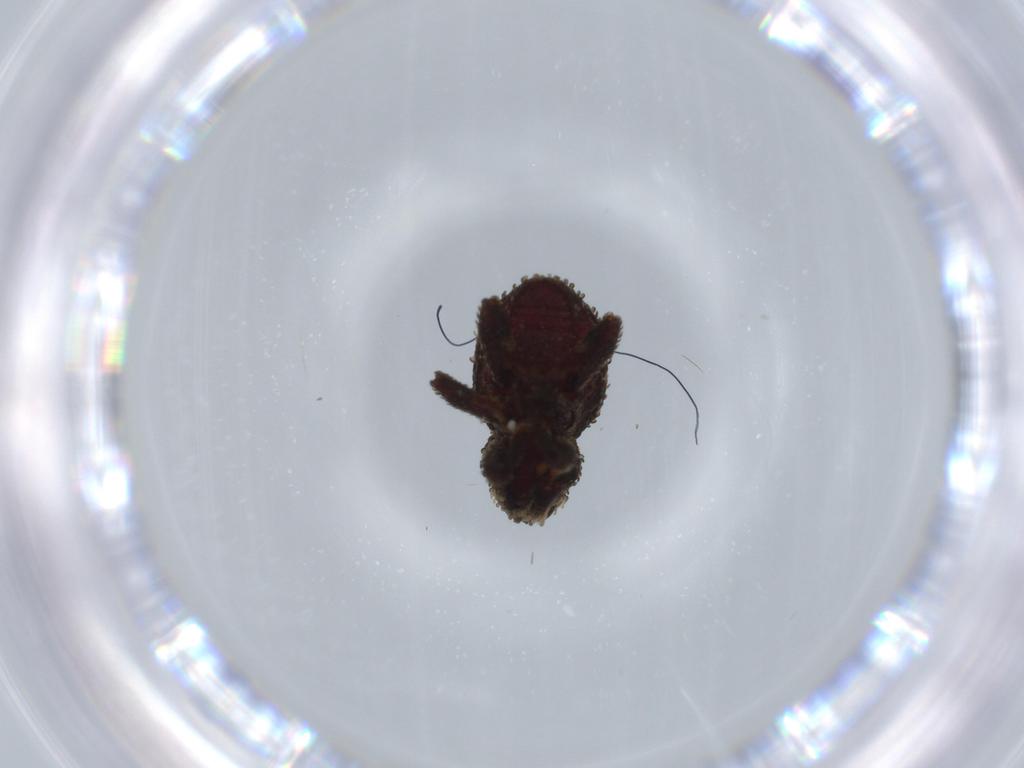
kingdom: Animalia
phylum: Arthropoda
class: Insecta
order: Coleoptera
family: Curculionidae
